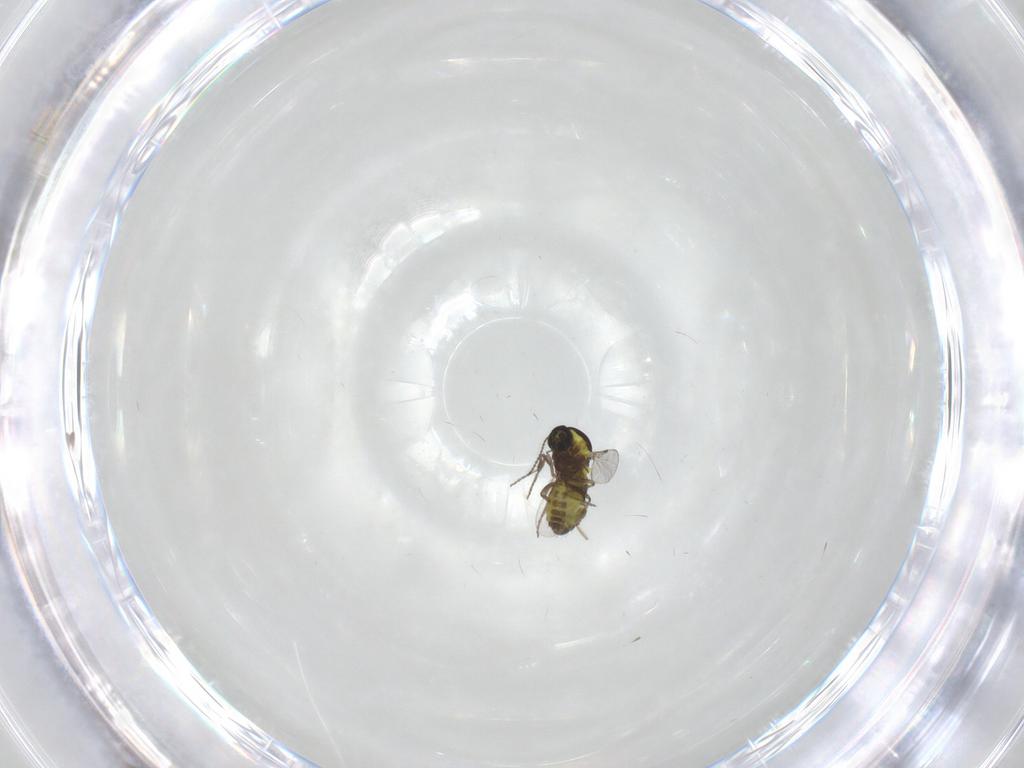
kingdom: Animalia
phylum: Arthropoda
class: Insecta
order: Diptera
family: Ceratopogonidae
